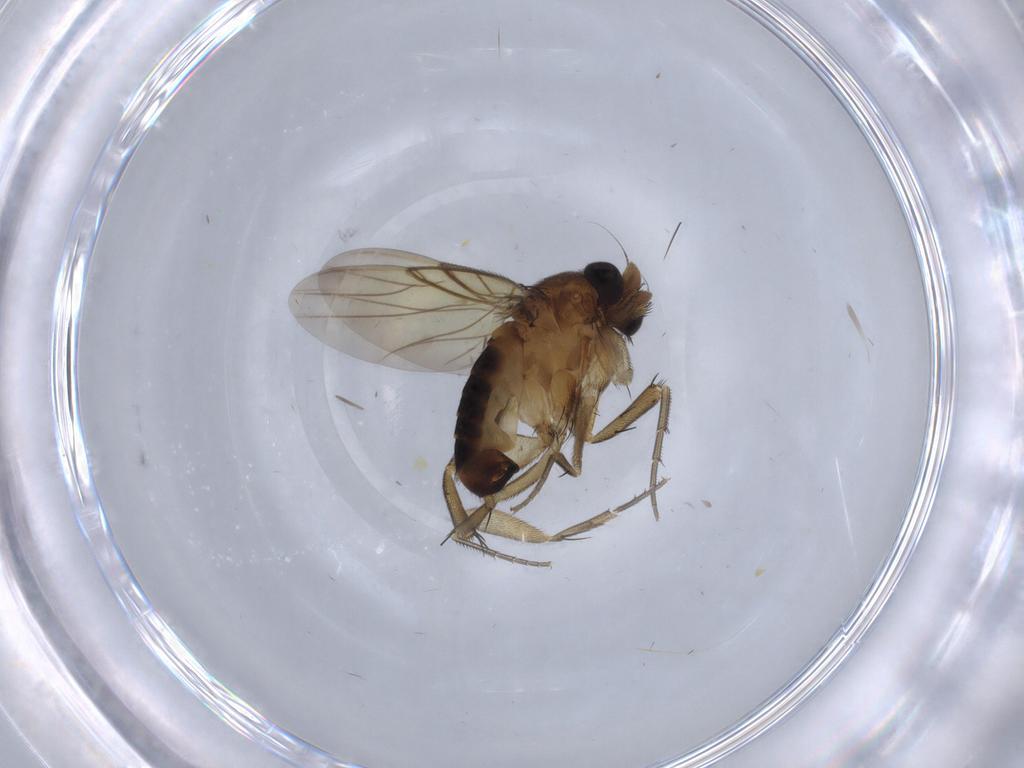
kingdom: Animalia
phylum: Arthropoda
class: Insecta
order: Diptera
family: Phoridae
